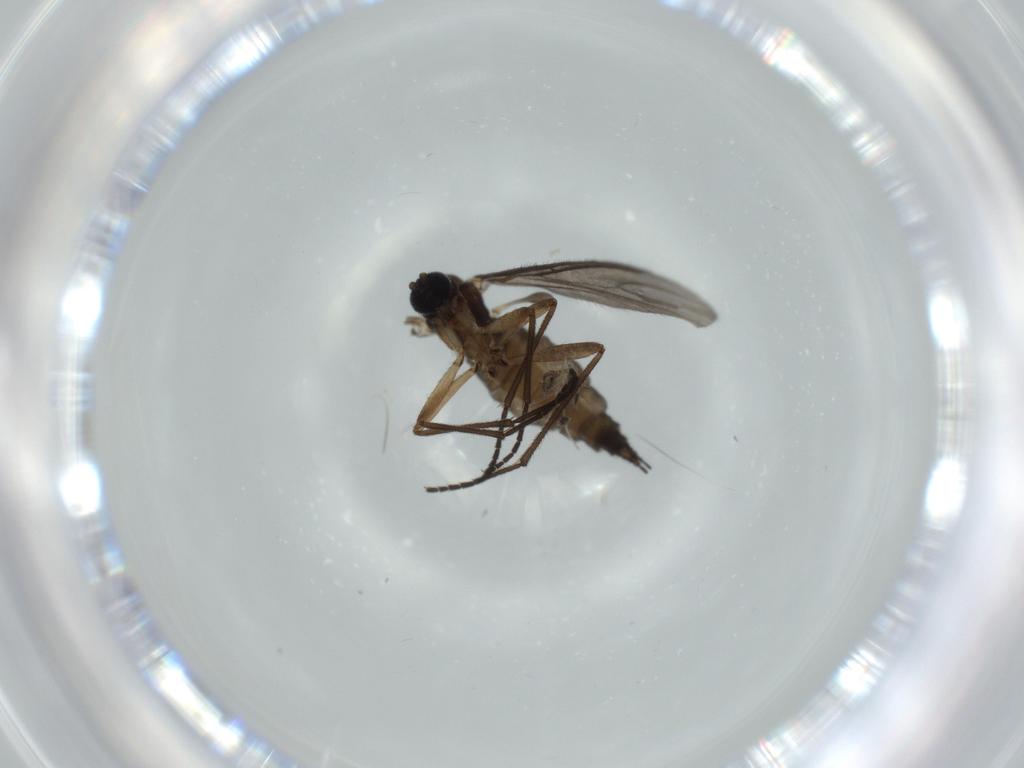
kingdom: Animalia
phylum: Arthropoda
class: Insecta
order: Diptera
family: Sciaridae
